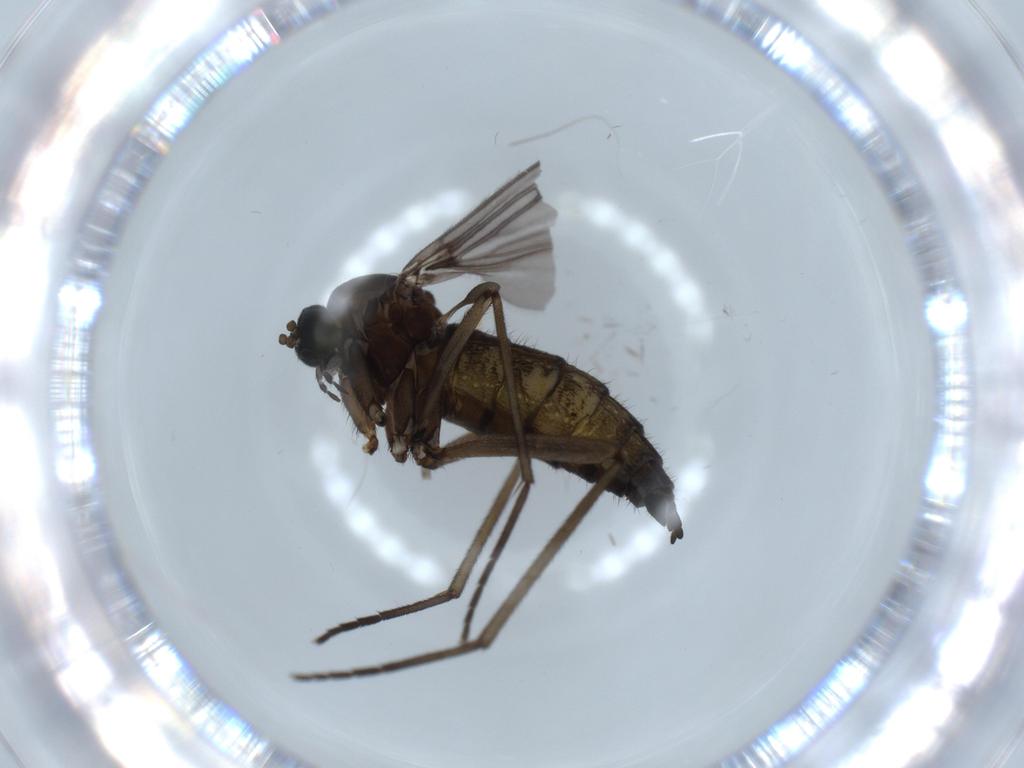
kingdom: Animalia
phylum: Arthropoda
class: Insecta
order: Diptera
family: Sciaridae
